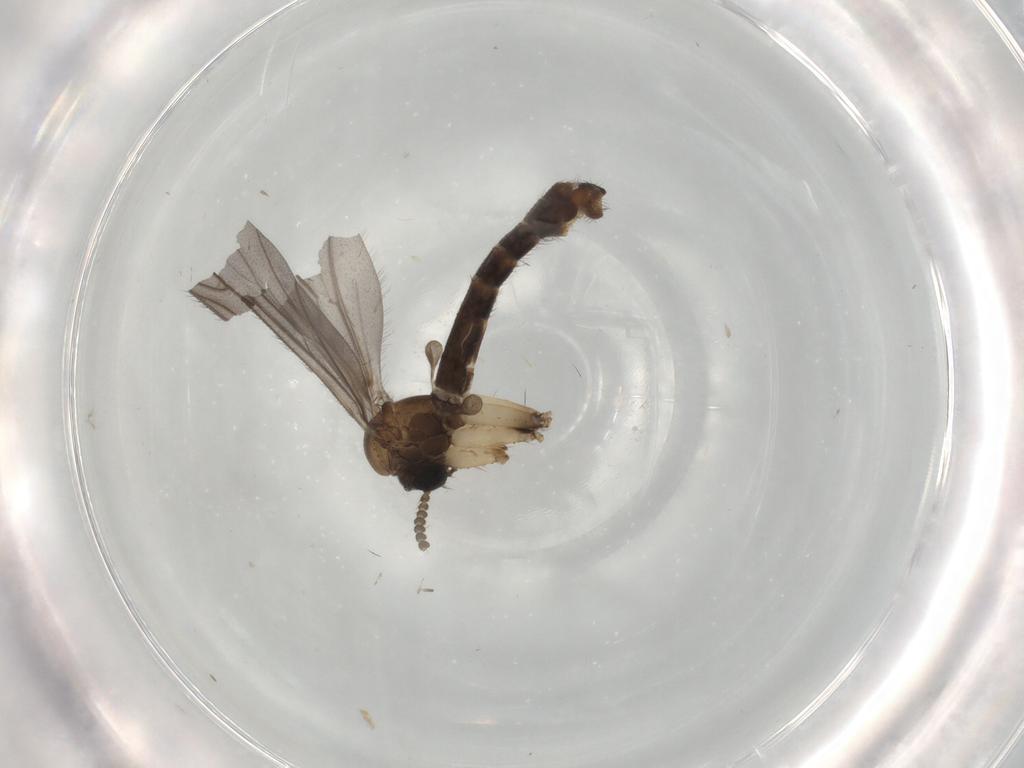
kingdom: Animalia
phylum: Arthropoda
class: Insecta
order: Diptera
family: Ditomyiidae
